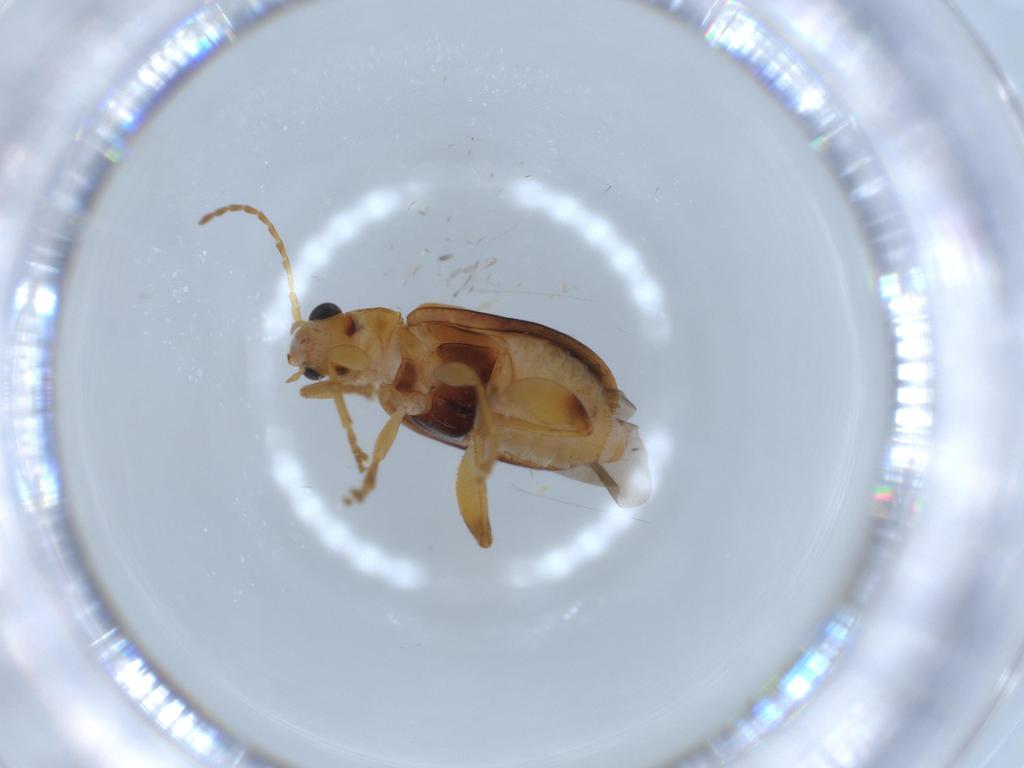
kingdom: Animalia
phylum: Arthropoda
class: Insecta
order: Coleoptera
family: Chrysomelidae
